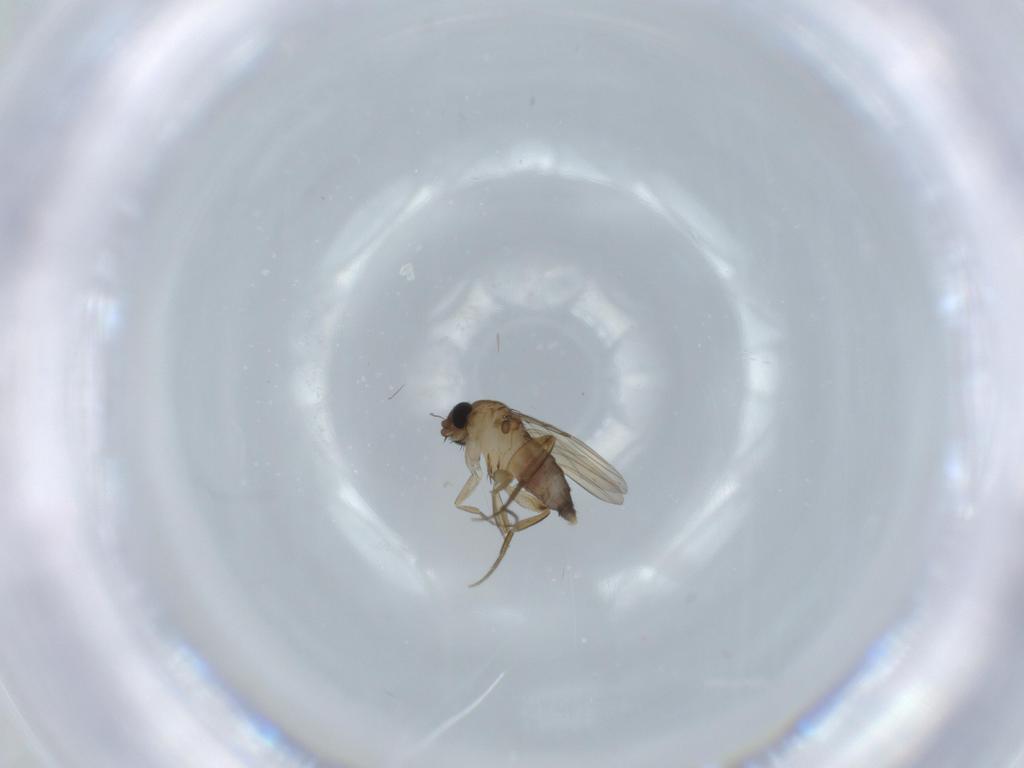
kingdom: Animalia
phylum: Arthropoda
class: Insecta
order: Diptera
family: Phoridae
